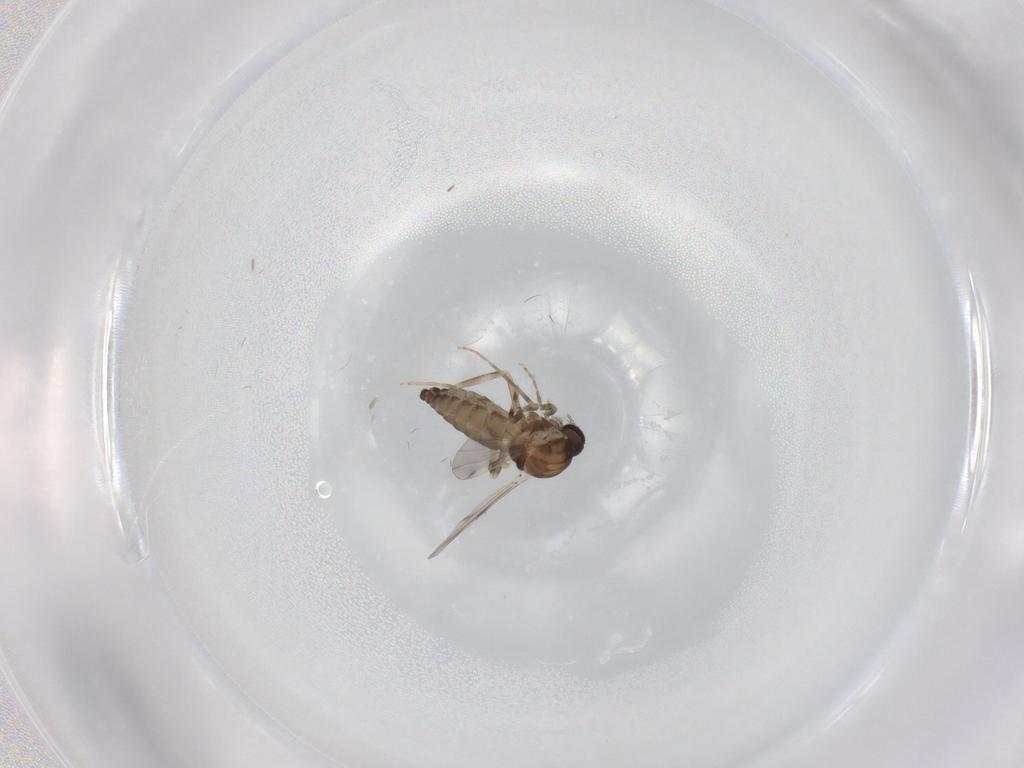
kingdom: Animalia
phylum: Arthropoda
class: Insecta
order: Diptera
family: Ceratopogonidae
